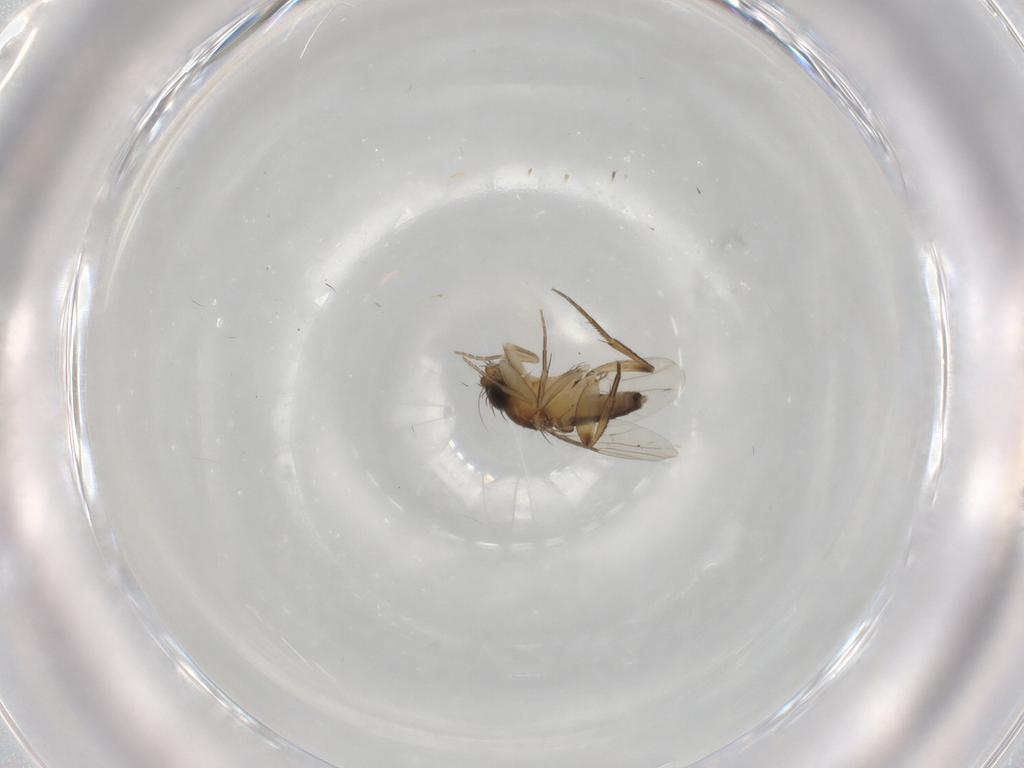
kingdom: Animalia
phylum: Arthropoda
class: Insecta
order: Diptera
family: Phoridae
